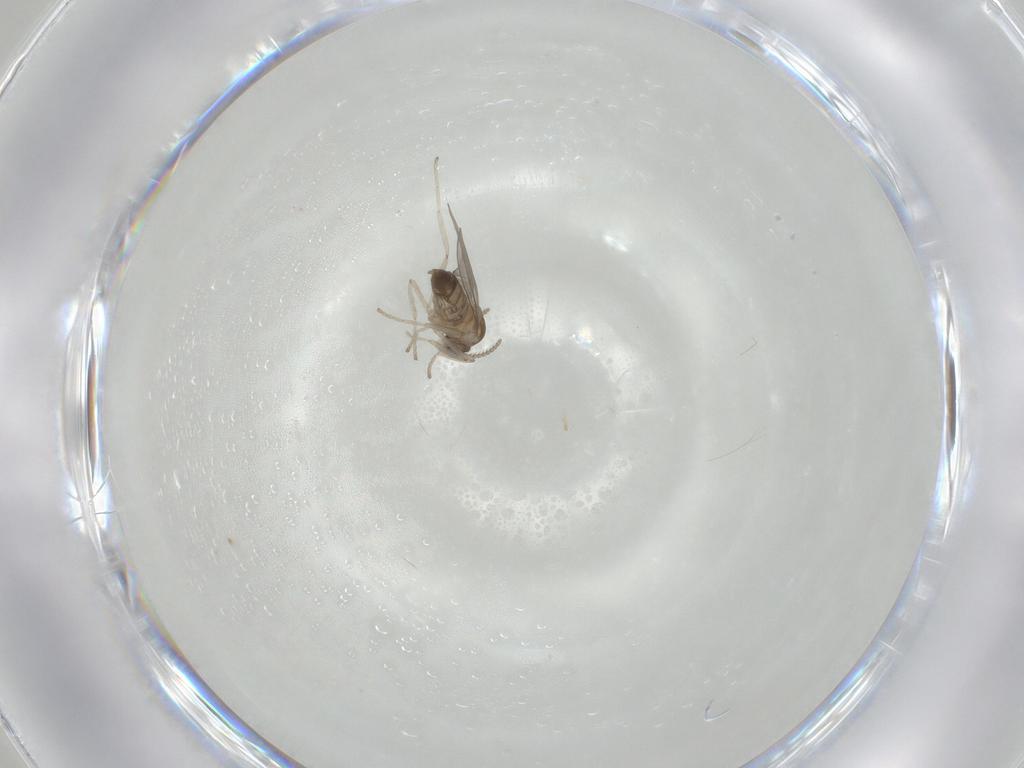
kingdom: Animalia
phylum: Arthropoda
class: Insecta
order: Diptera
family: Cecidomyiidae
